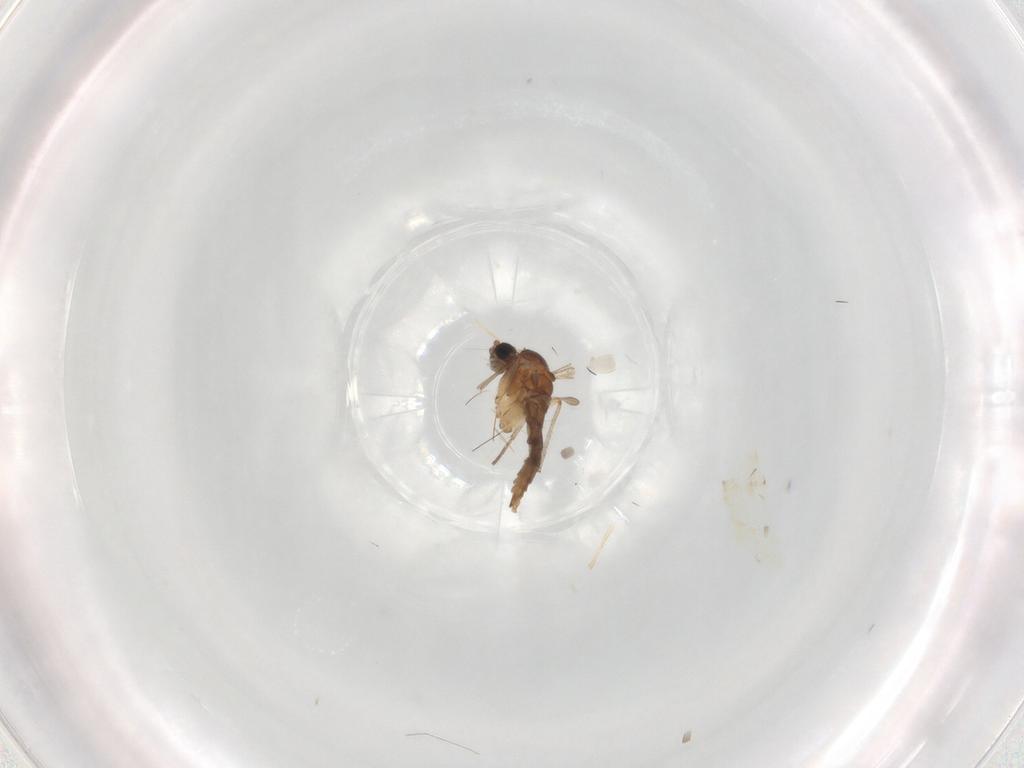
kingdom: Animalia
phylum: Arthropoda
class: Insecta
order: Diptera
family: Sciaridae
